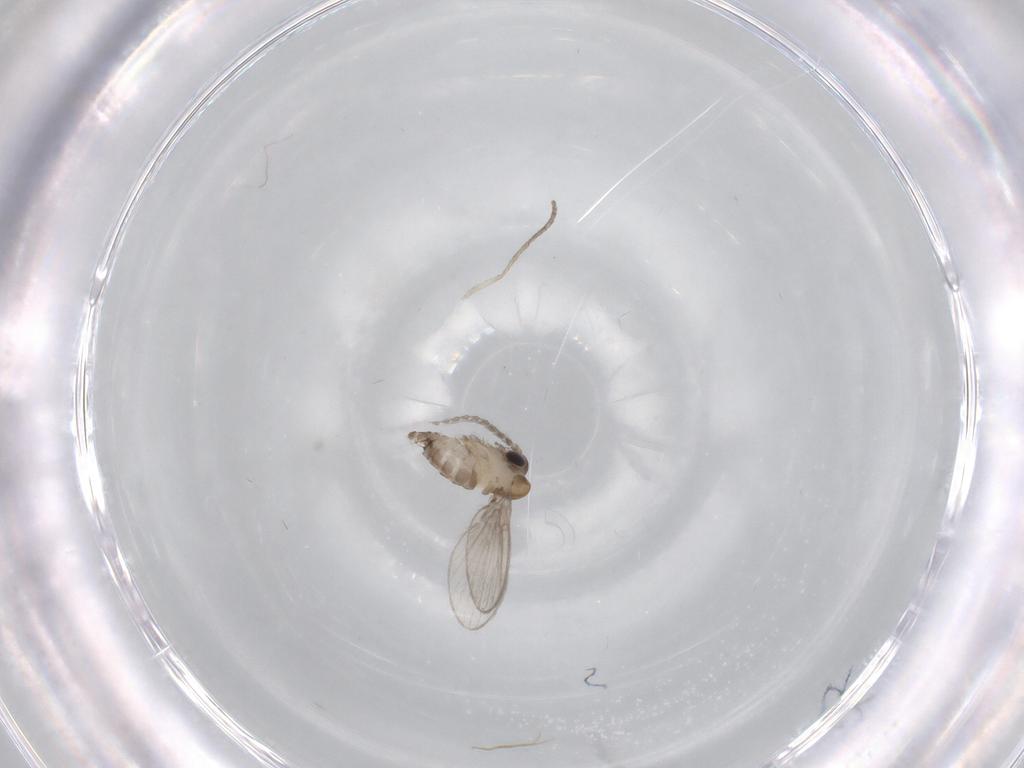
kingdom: Animalia
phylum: Arthropoda
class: Insecta
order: Diptera
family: Psychodidae
